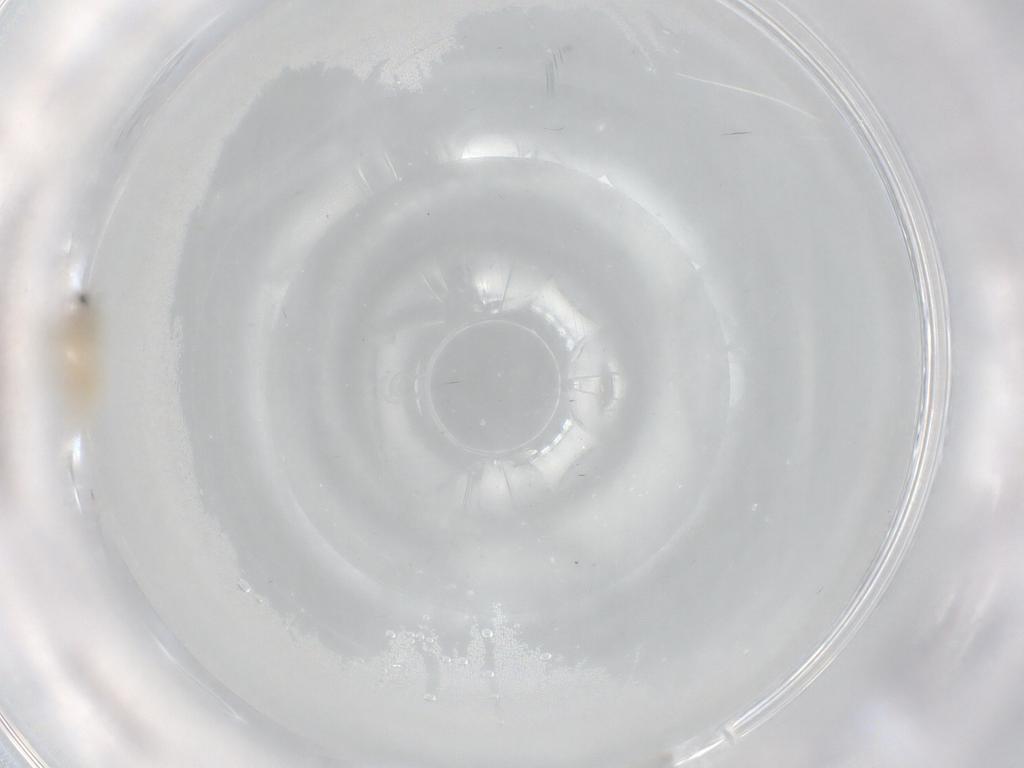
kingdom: Animalia
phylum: Arthropoda
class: Insecta
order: Diptera
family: Cecidomyiidae
